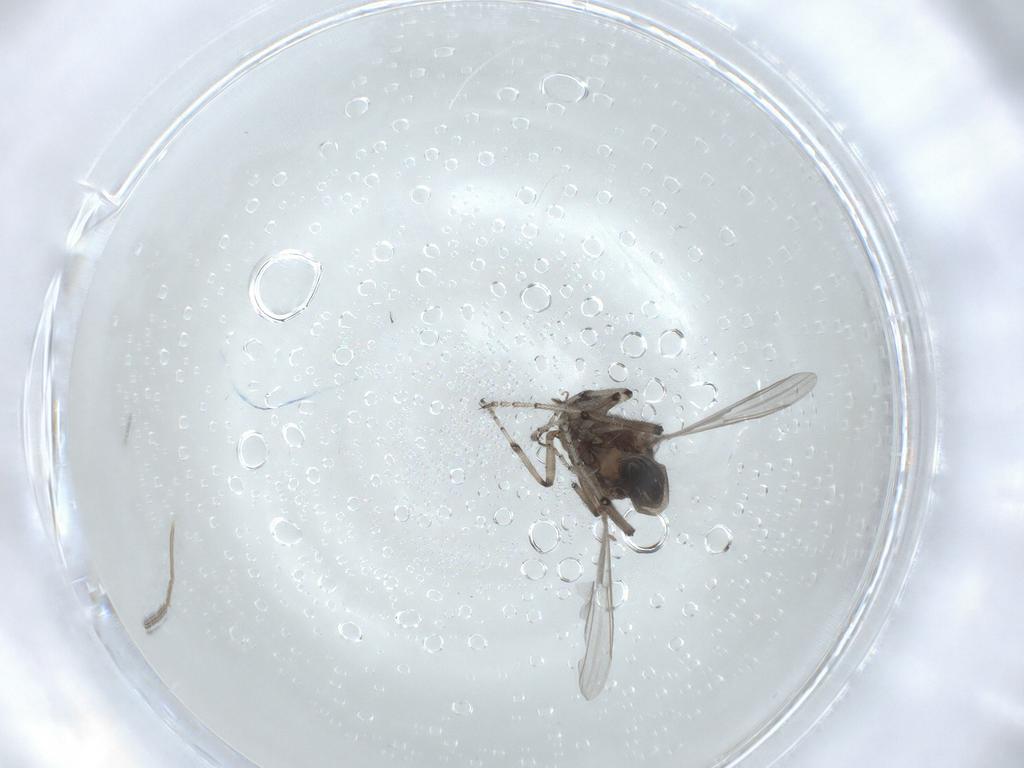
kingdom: Animalia
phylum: Arthropoda
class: Insecta
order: Diptera
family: Ceratopogonidae
